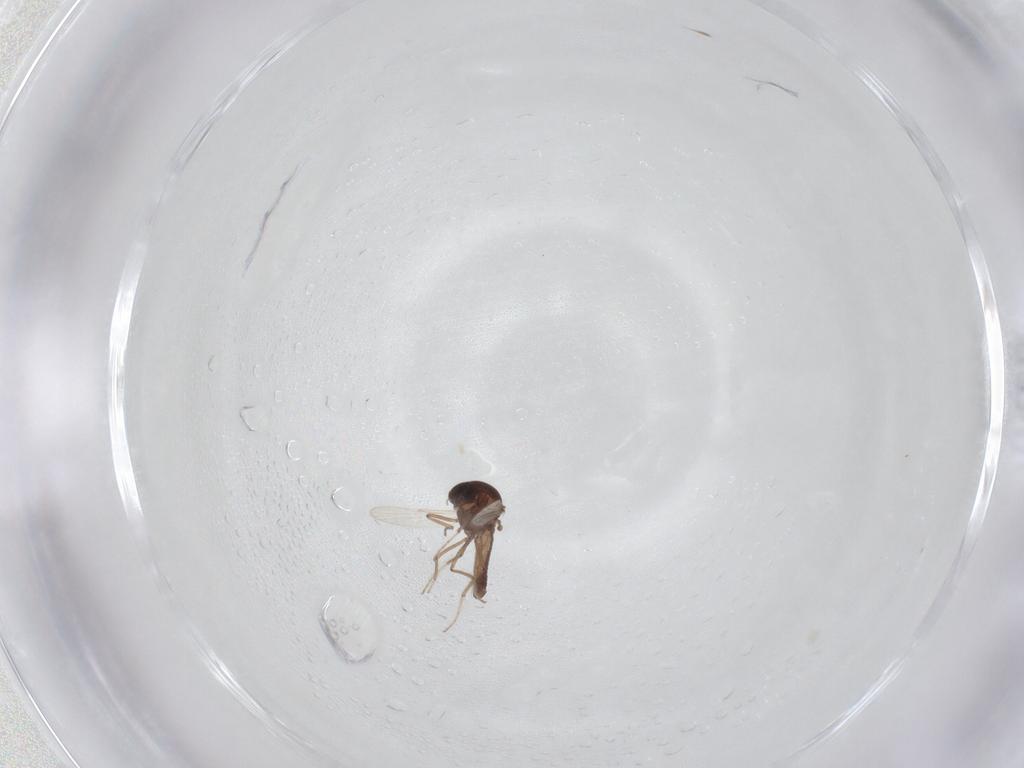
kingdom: Animalia
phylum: Arthropoda
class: Insecta
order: Diptera
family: Ceratopogonidae
